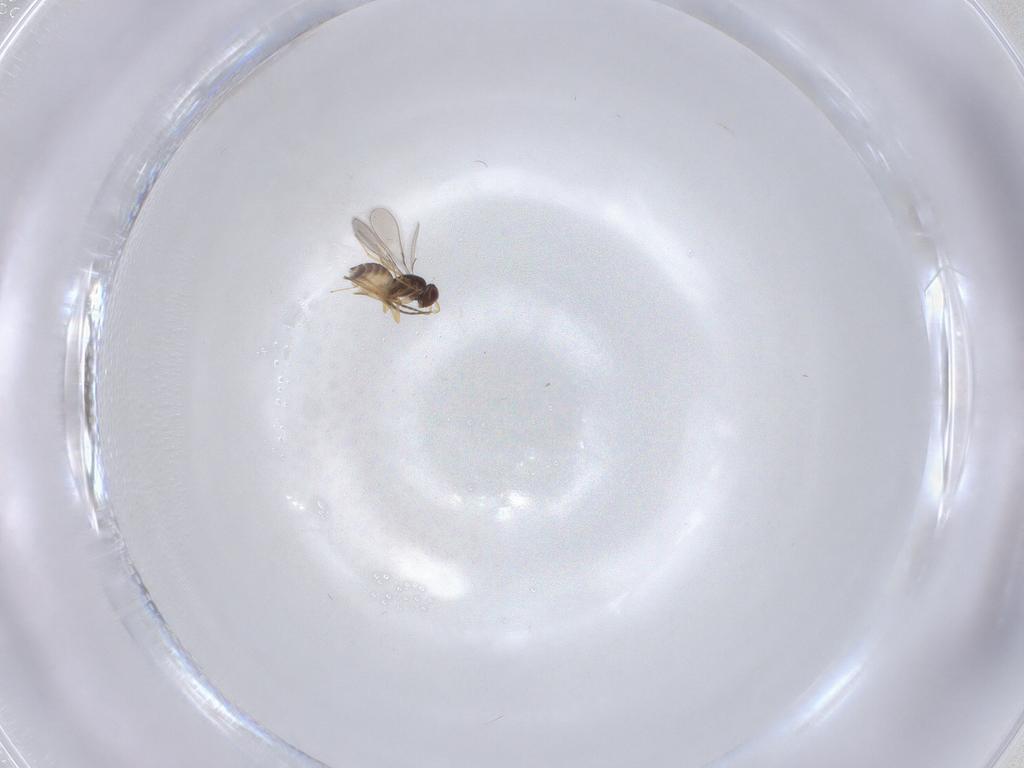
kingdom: Animalia
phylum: Arthropoda
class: Insecta
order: Hymenoptera
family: Mymaridae
